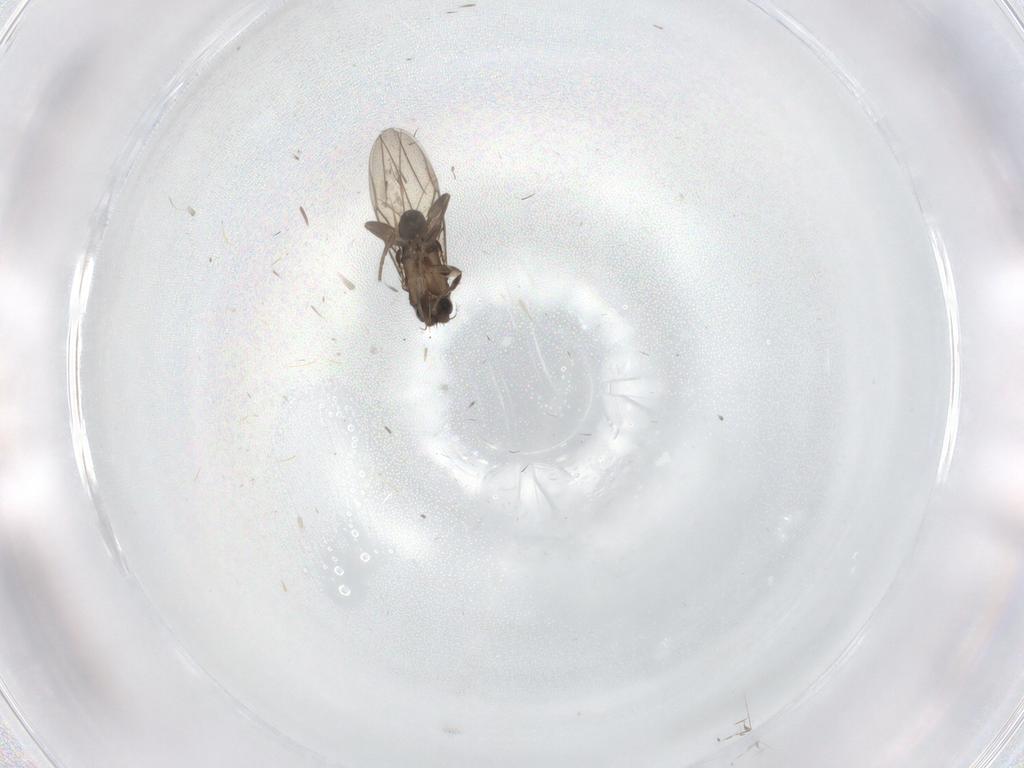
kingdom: Animalia
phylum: Arthropoda
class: Insecta
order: Diptera
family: Phoridae
